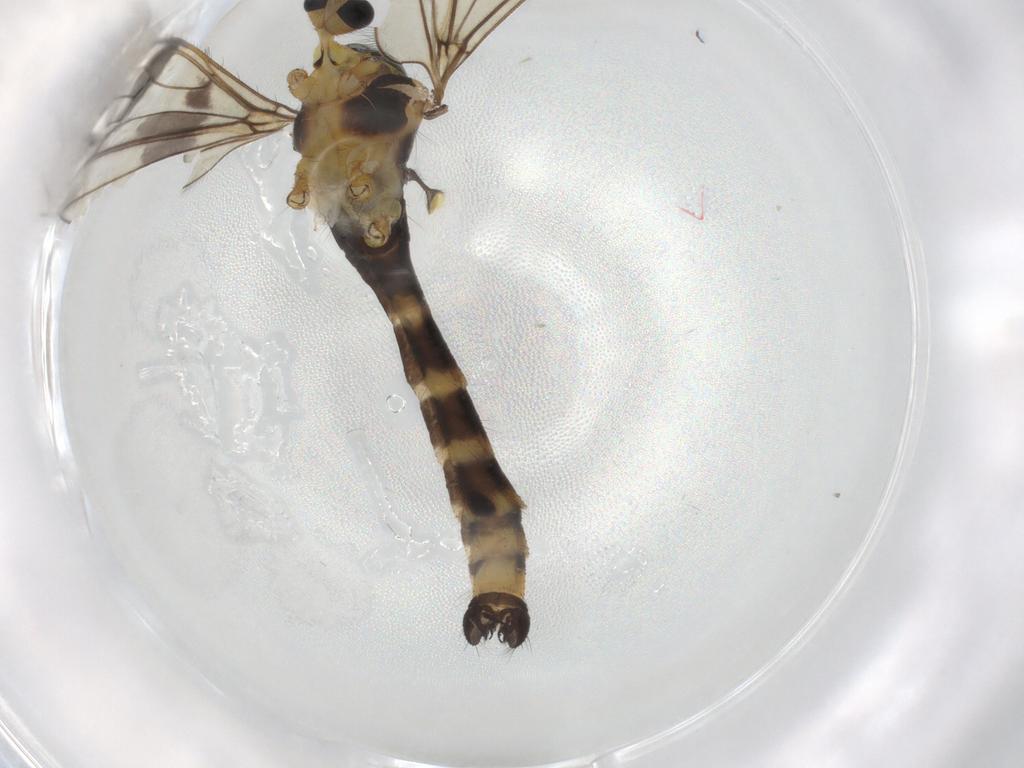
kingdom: Animalia
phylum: Arthropoda
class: Insecta
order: Diptera
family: Limoniidae
